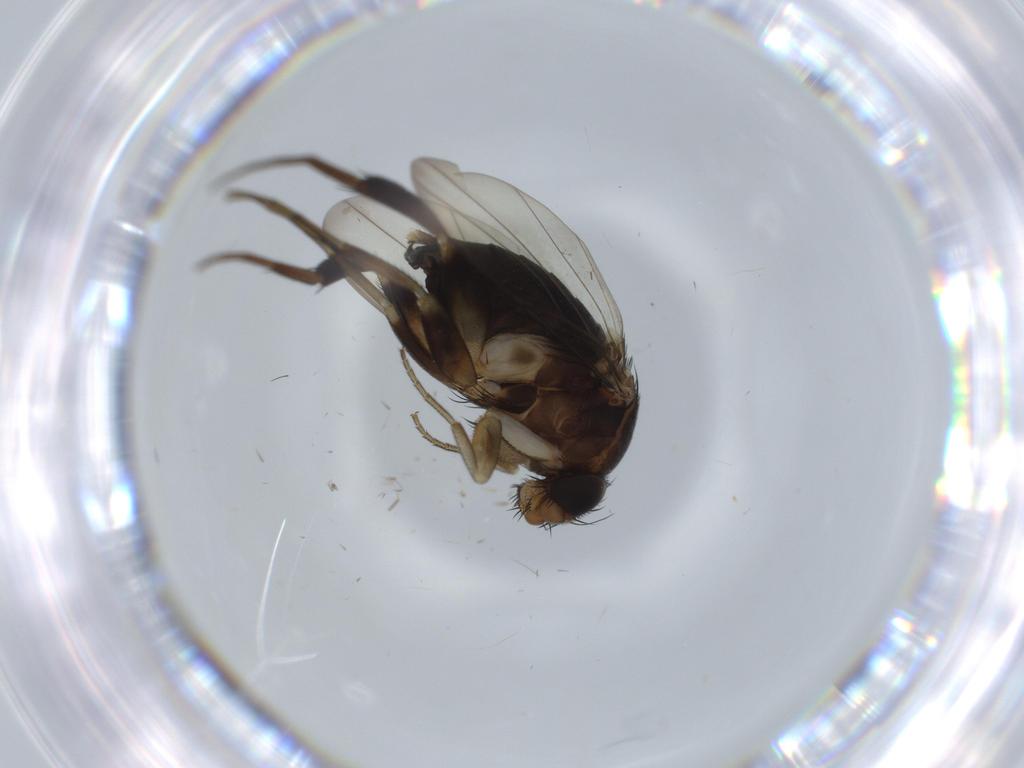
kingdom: Animalia
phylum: Arthropoda
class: Insecta
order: Diptera
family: Phoridae
